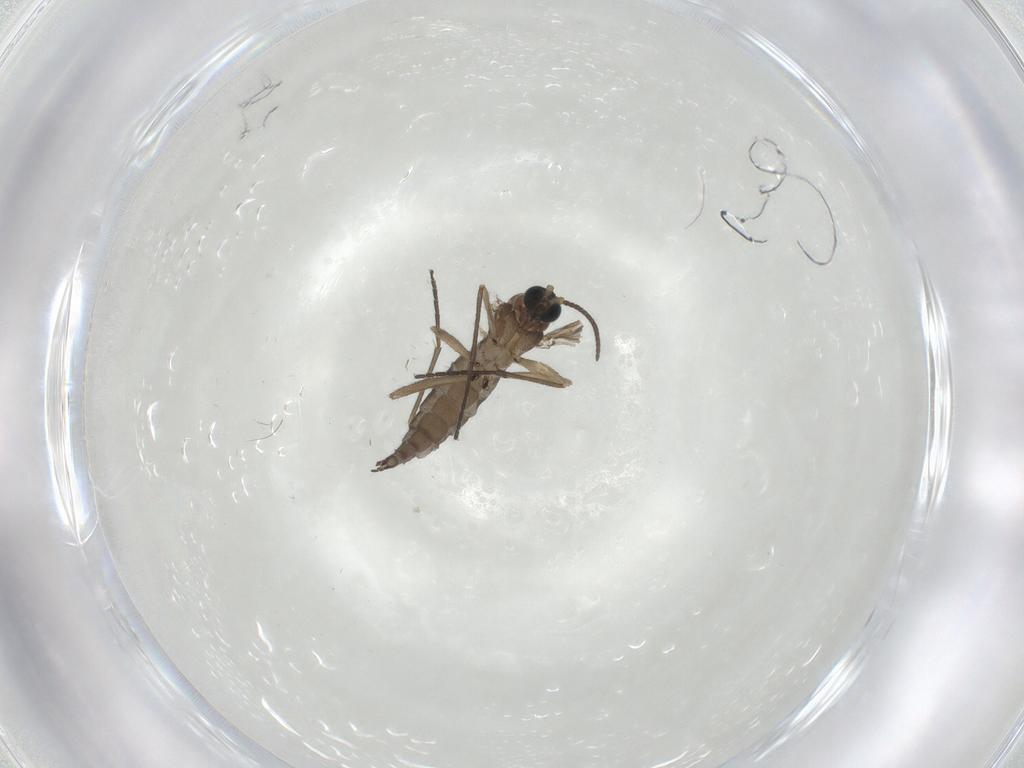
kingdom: Animalia
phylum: Arthropoda
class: Insecta
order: Diptera
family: Sciaridae
